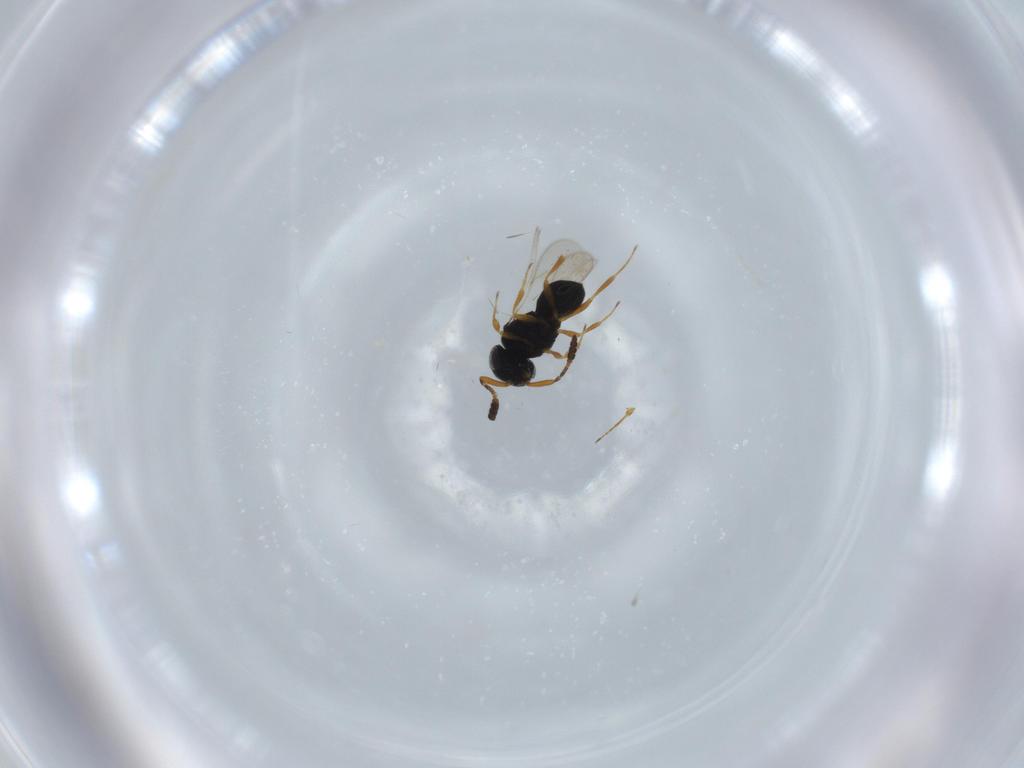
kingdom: Animalia
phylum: Arthropoda
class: Insecta
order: Hymenoptera
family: Scelionidae
